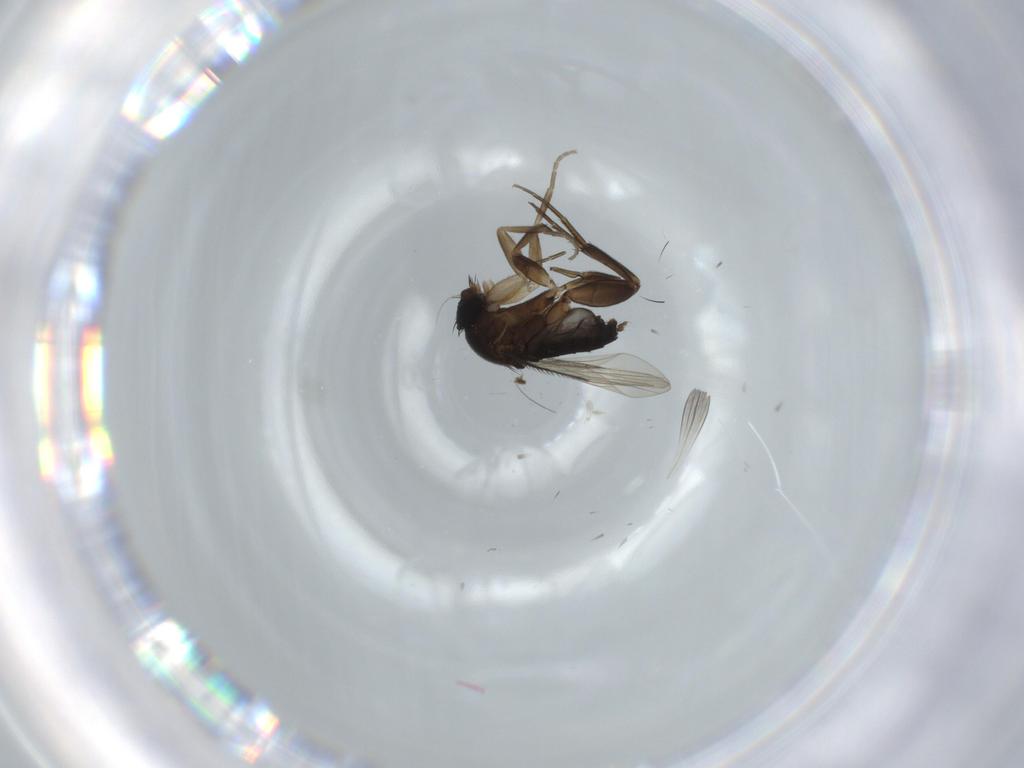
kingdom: Animalia
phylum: Arthropoda
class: Insecta
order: Diptera
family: Phoridae
